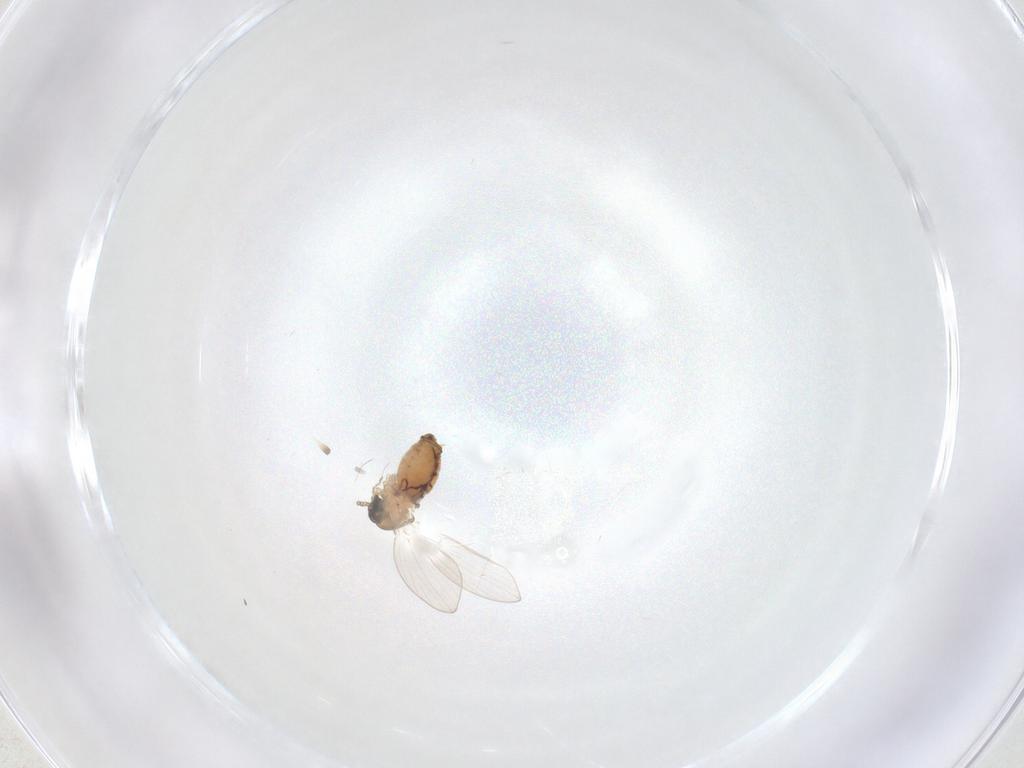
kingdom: Animalia
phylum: Arthropoda
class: Insecta
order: Diptera
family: Psychodidae
